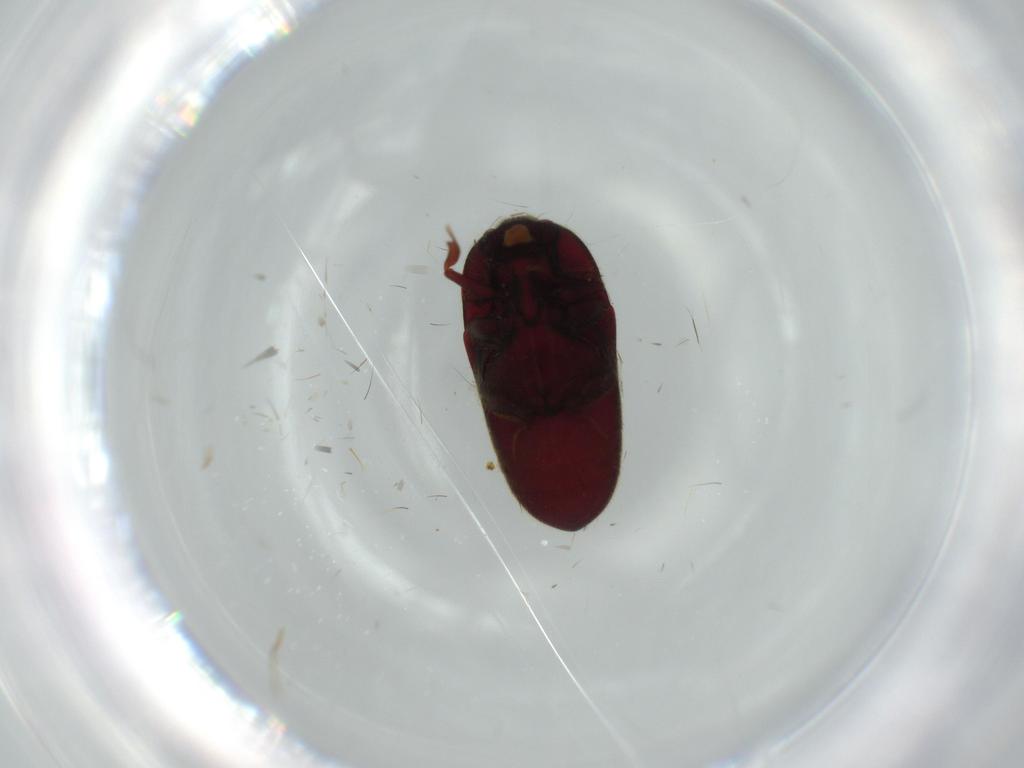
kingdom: Animalia
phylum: Arthropoda
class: Insecta
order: Coleoptera
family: Throscidae
